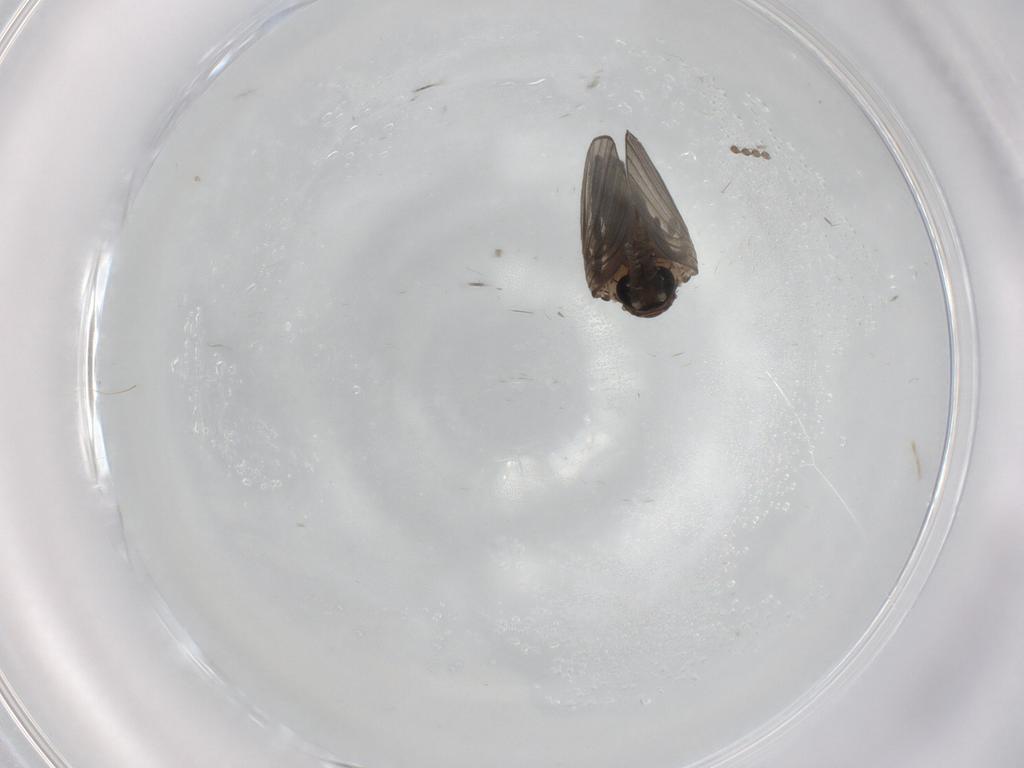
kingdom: Animalia
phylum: Arthropoda
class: Insecta
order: Diptera
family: Psychodidae
